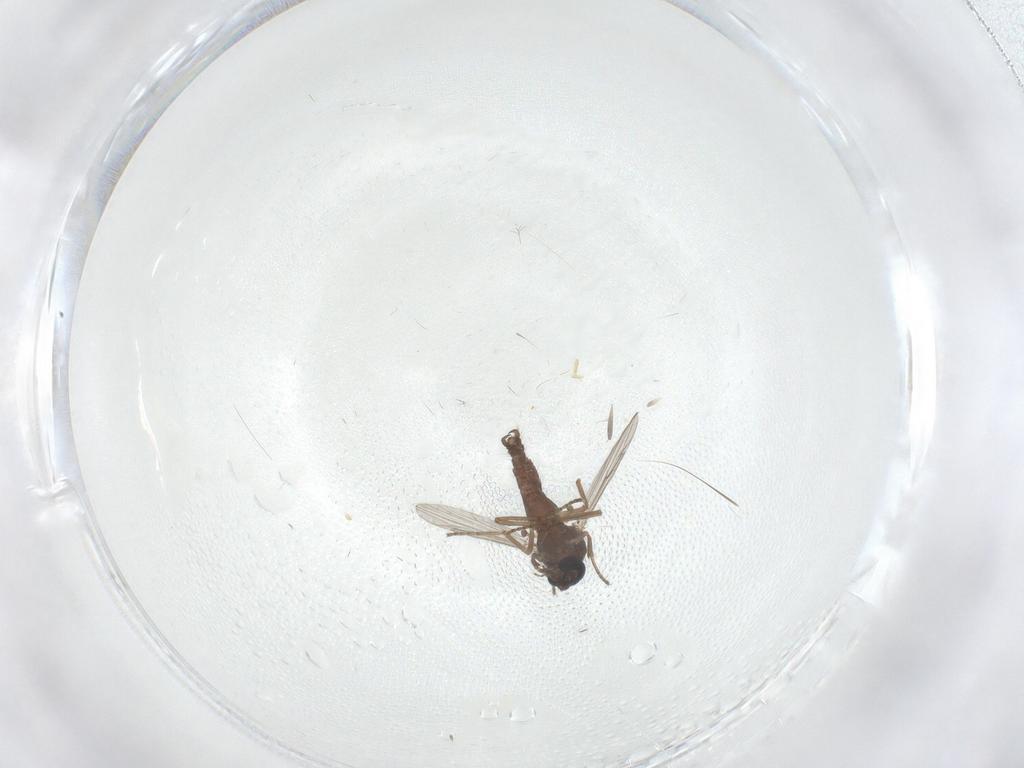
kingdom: Animalia
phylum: Arthropoda
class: Insecta
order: Diptera
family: Ceratopogonidae
